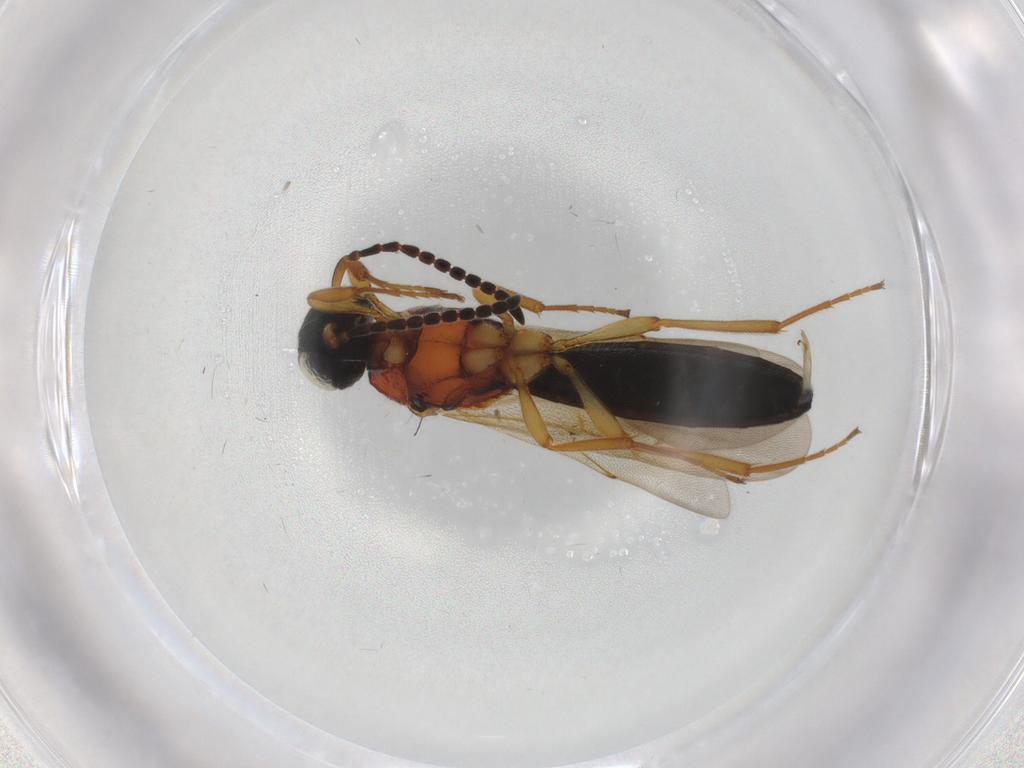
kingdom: Animalia
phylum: Arthropoda
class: Insecta
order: Hymenoptera
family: Scelionidae
